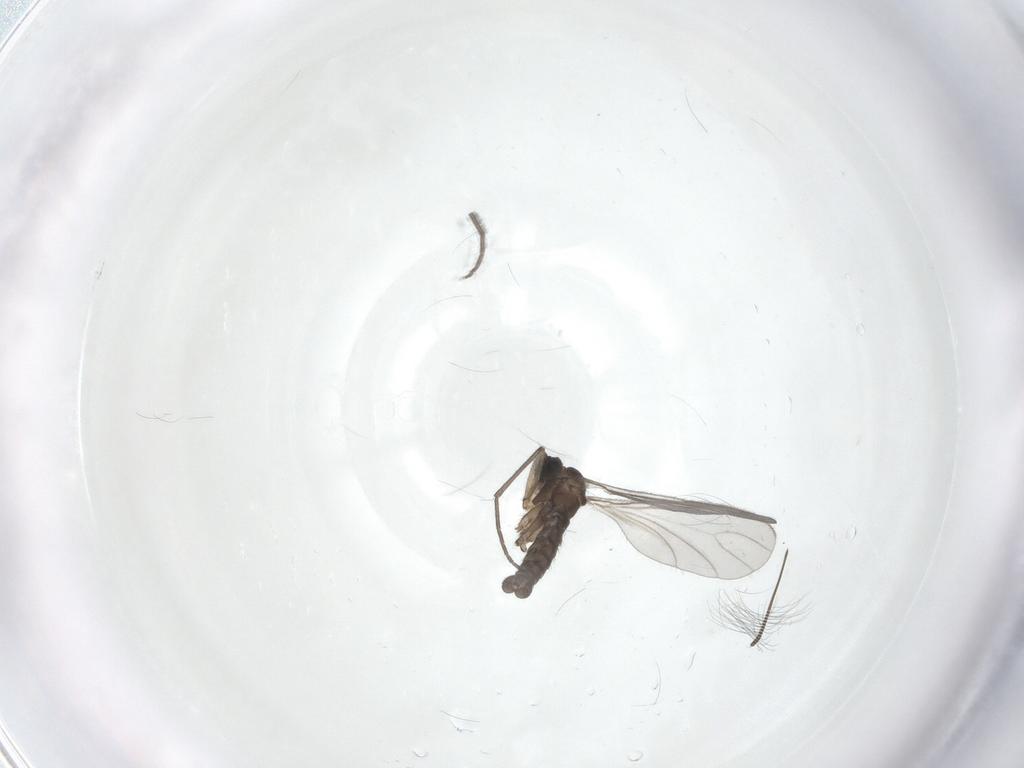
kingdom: Animalia
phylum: Arthropoda
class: Insecta
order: Diptera
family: Sciaridae
